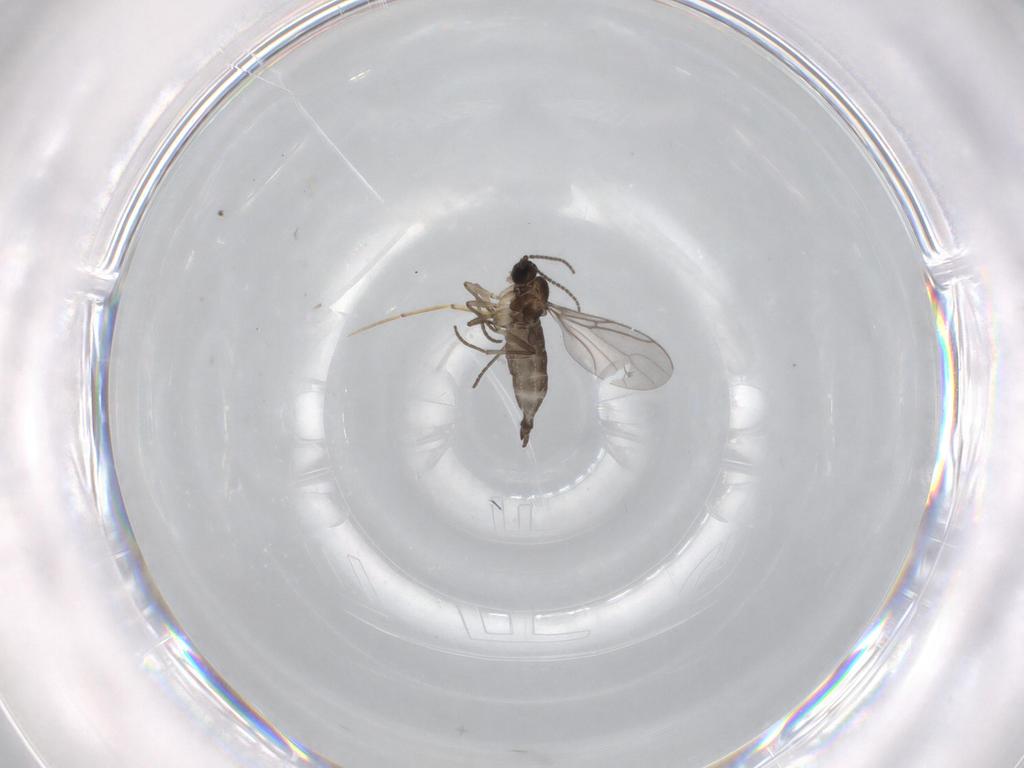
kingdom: Animalia
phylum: Arthropoda
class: Insecta
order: Diptera
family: Sciaridae
